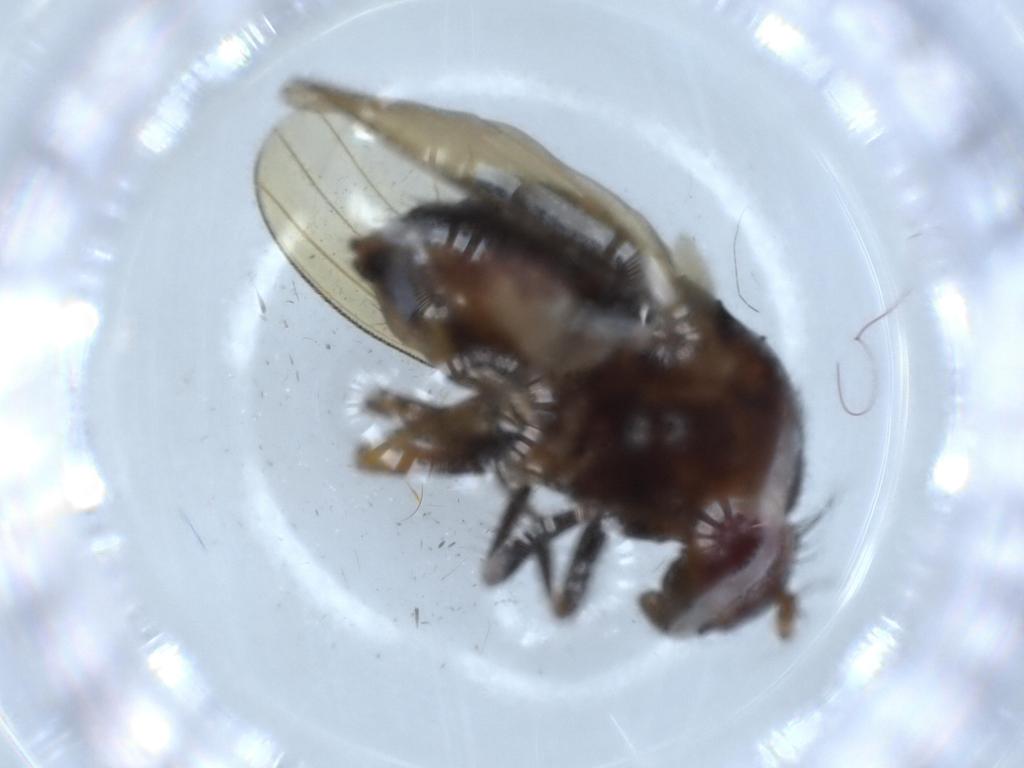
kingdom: Animalia
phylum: Arthropoda
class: Insecta
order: Diptera
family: Lauxaniidae
